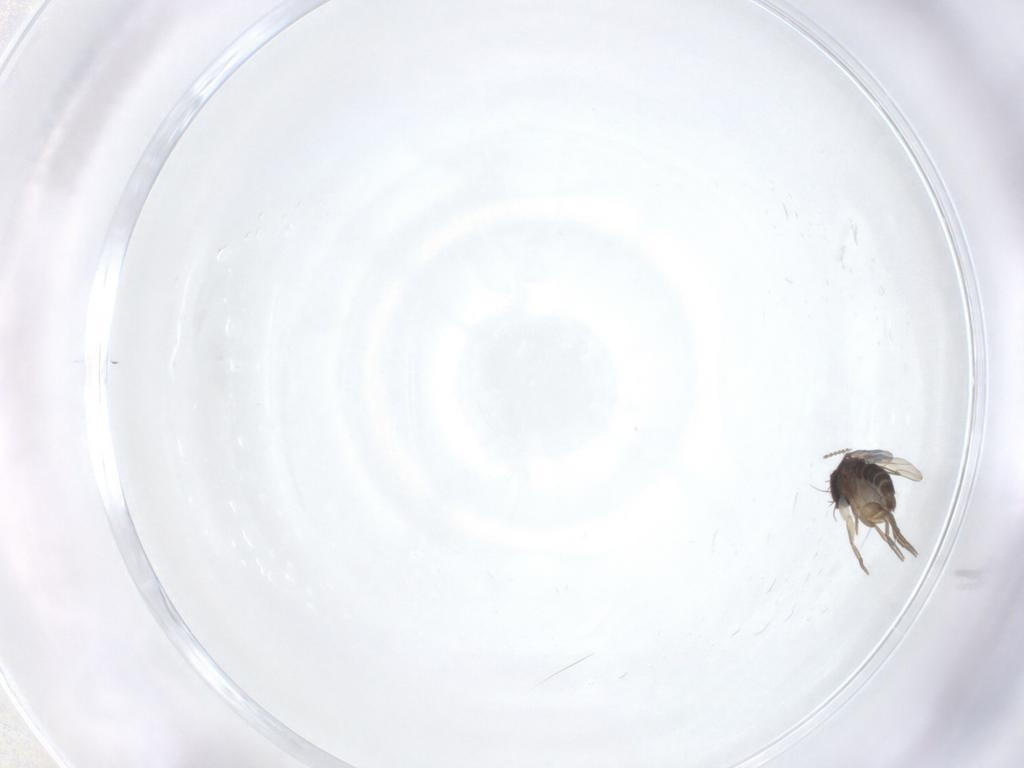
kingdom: Animalia
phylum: Arthropoda
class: Insecta
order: Diptera
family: Phoridae
